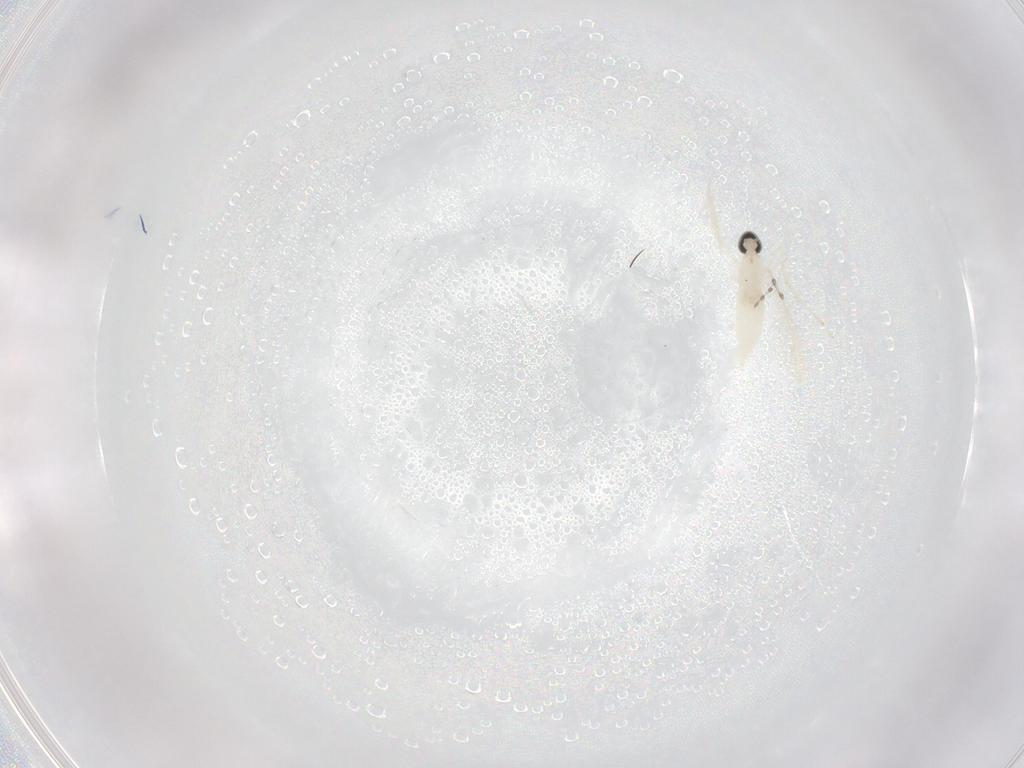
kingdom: Animalia
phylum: Arthropoda
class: Insecta
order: Diptera
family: Cecidomyiidae
